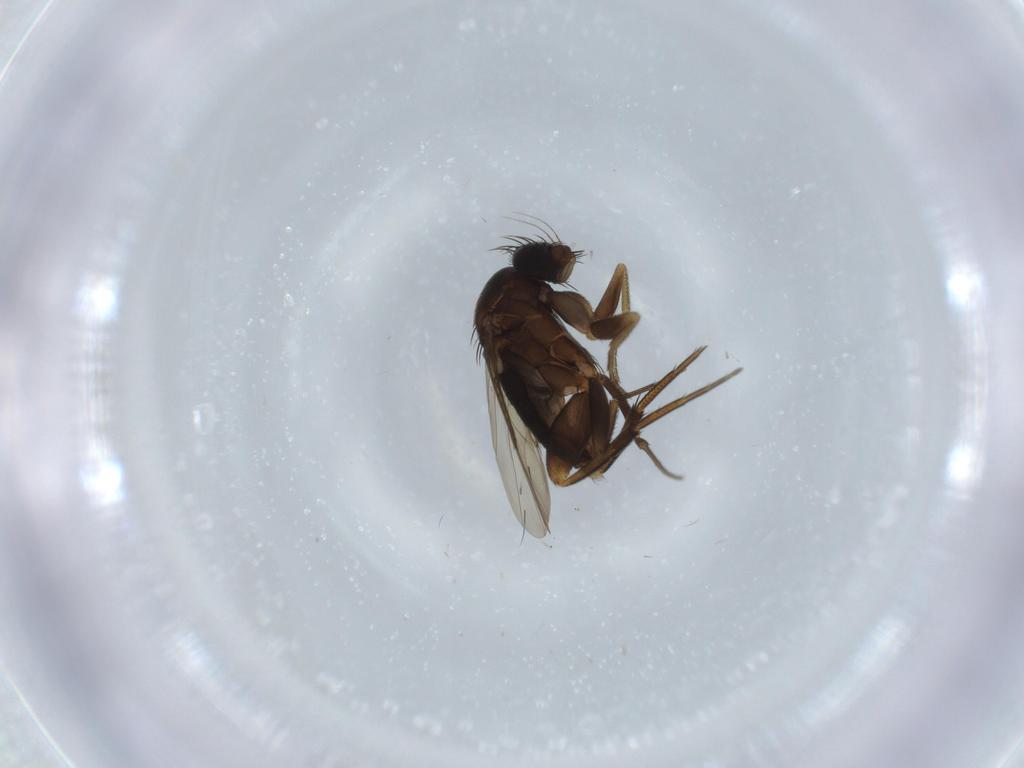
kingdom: Animalia
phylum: Arthropoda
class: Insecta
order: Diptera
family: Phoridae
